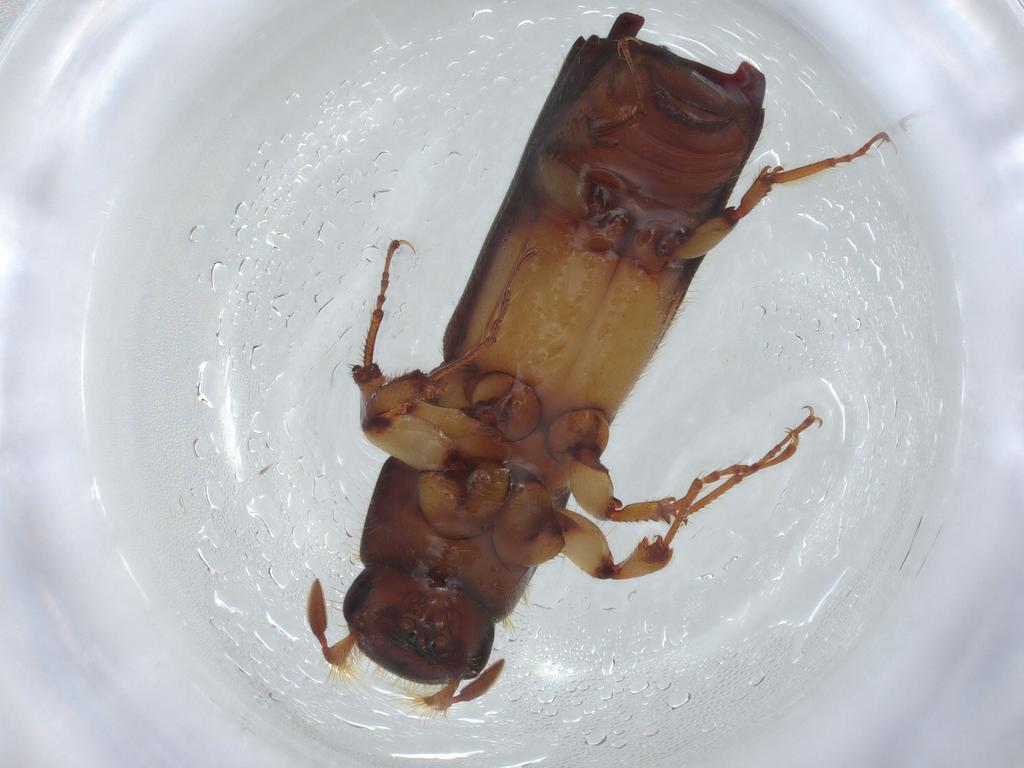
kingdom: Animalia
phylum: Arthropoda
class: Insecta
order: Coleoptera
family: Curculionidae
